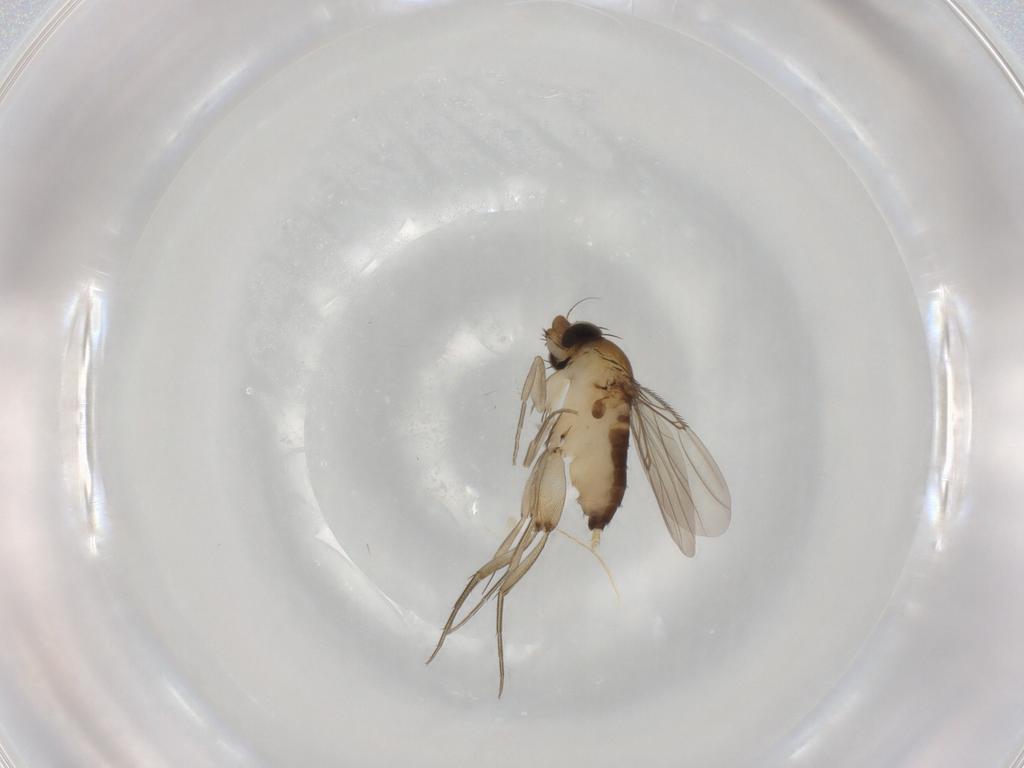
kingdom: Animalia
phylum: Arthropoda
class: Insecta
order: Diptera
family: Phoridae
